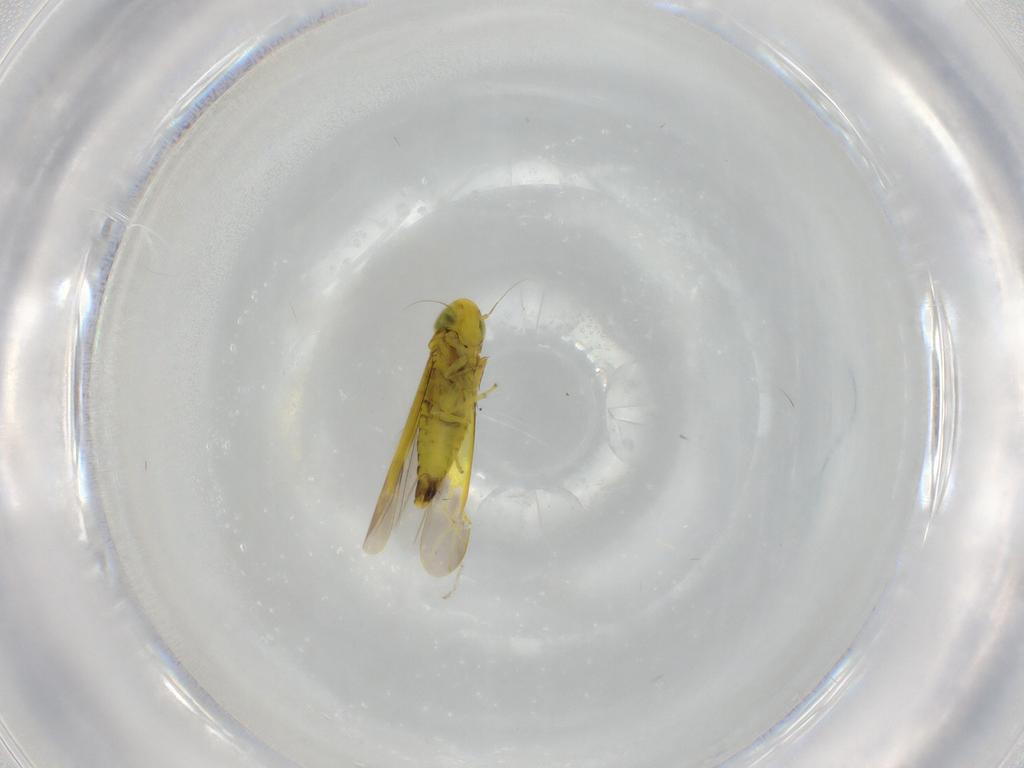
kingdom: Animalia
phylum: Arthropoda
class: Insecta
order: Hemiptera
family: Cicadellidae
